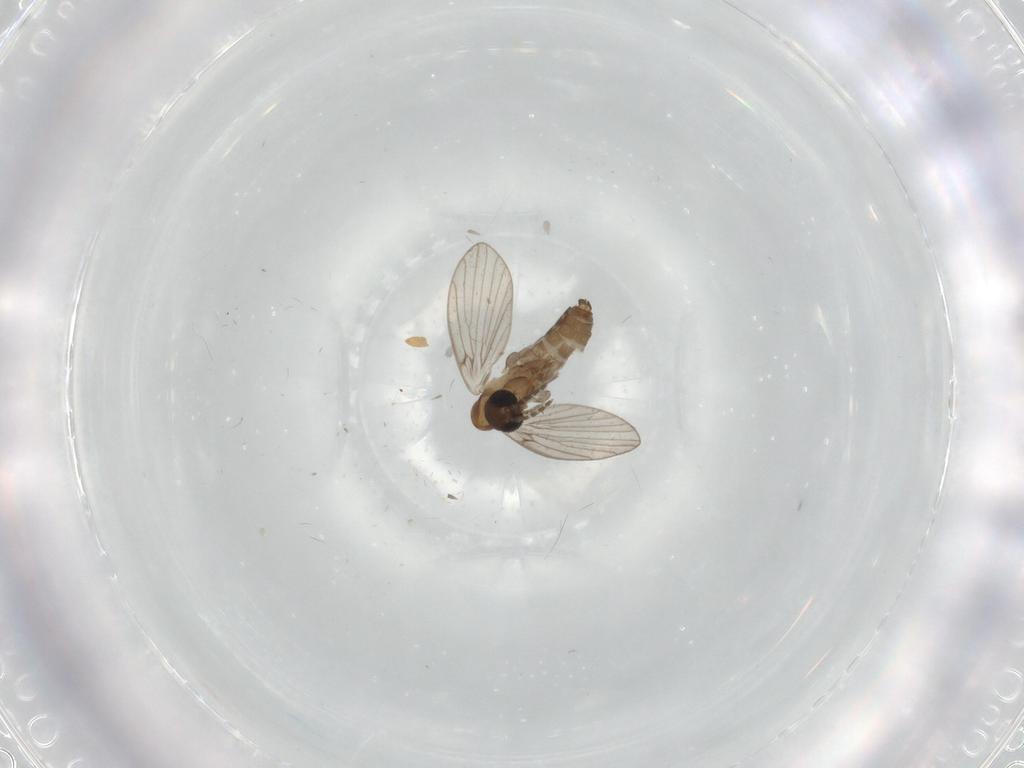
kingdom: Animalia
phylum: Arthropoda
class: Insecta
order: Diptera
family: Psychodidae
